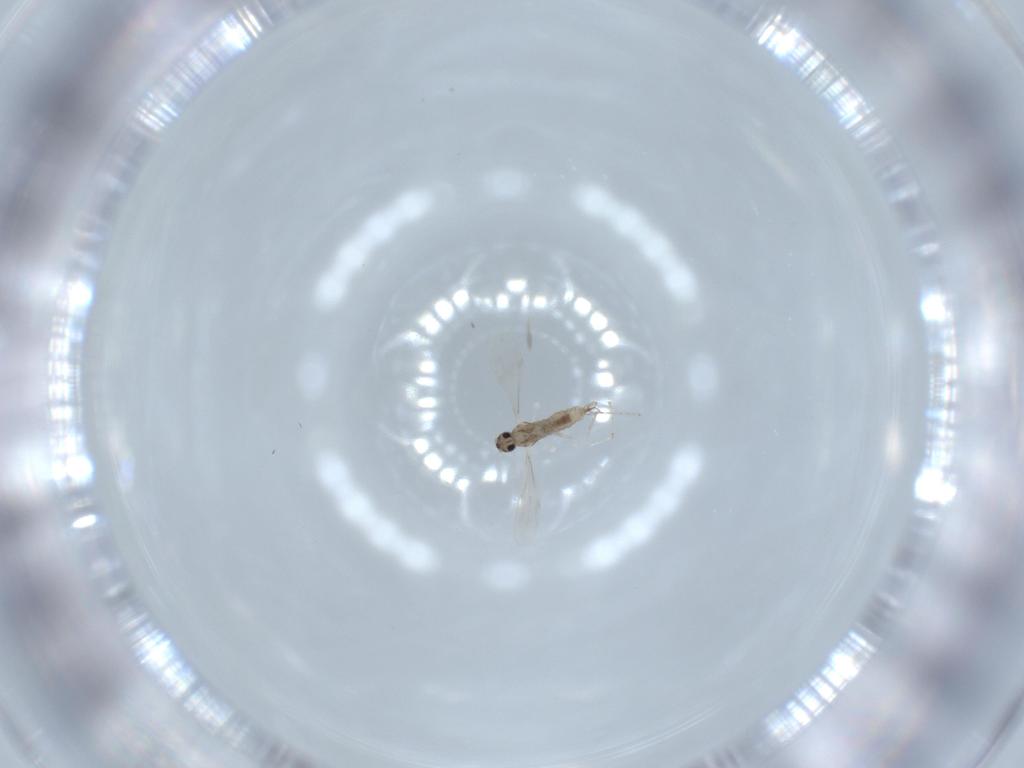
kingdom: Animalia
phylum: Arthropoda
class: Insecta
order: Diptera
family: Cecidomyiidae
